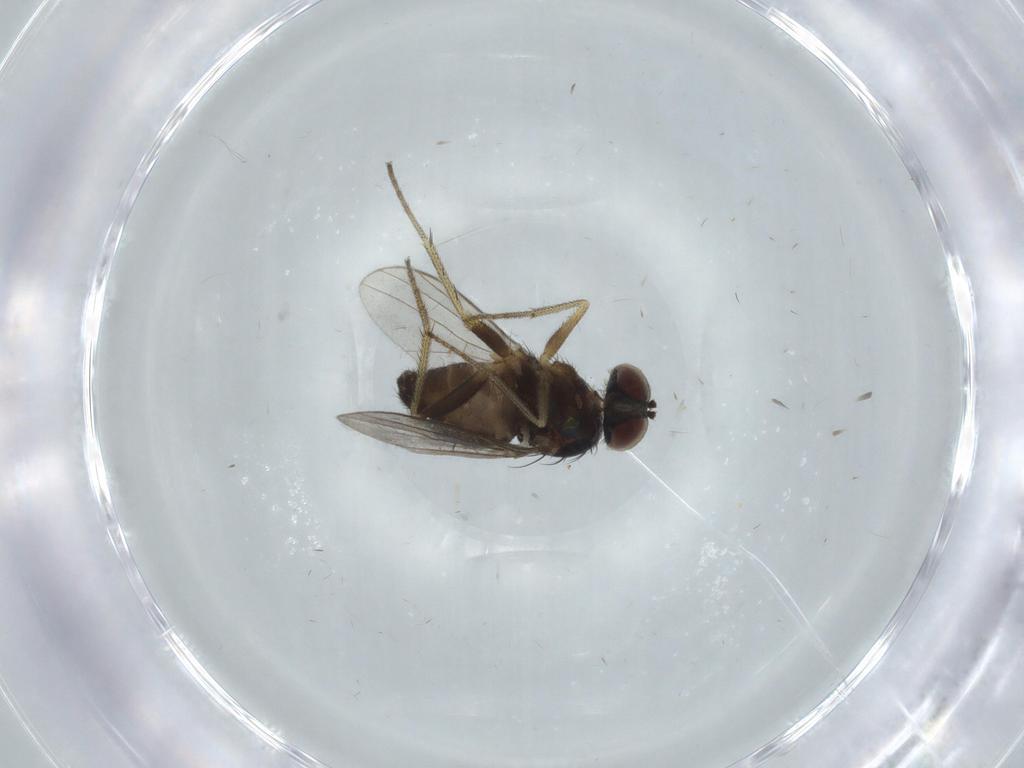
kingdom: Animalia
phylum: Arthropoda
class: Insecta
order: Diptera
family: Dolichopodidae
